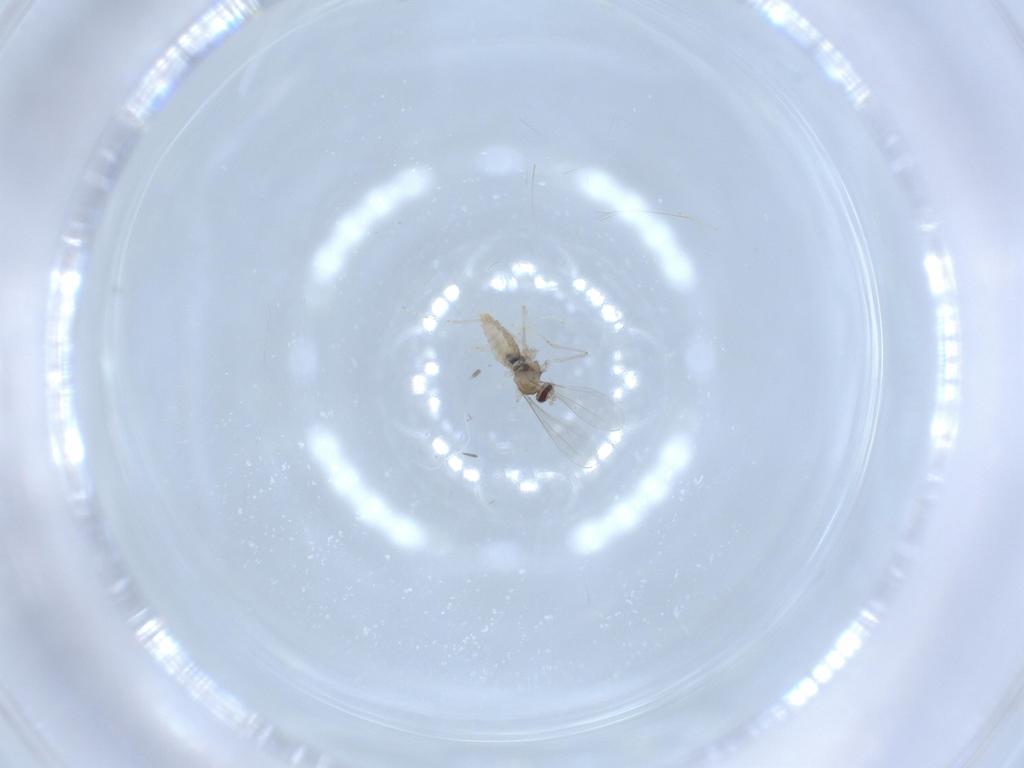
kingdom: Animalia
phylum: Arthropoda
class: Insecta
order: Diptera
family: Cecidomyiidae
